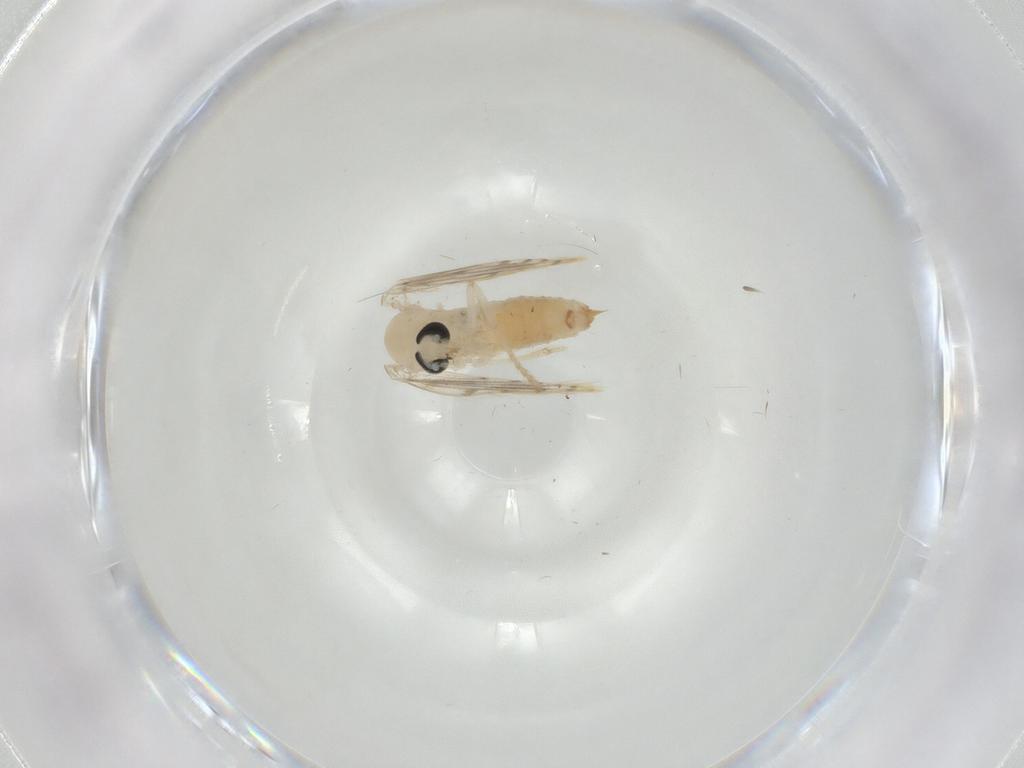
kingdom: Animalia
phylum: Arthropoda
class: Insecta
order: Diptera
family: Psychodidae
